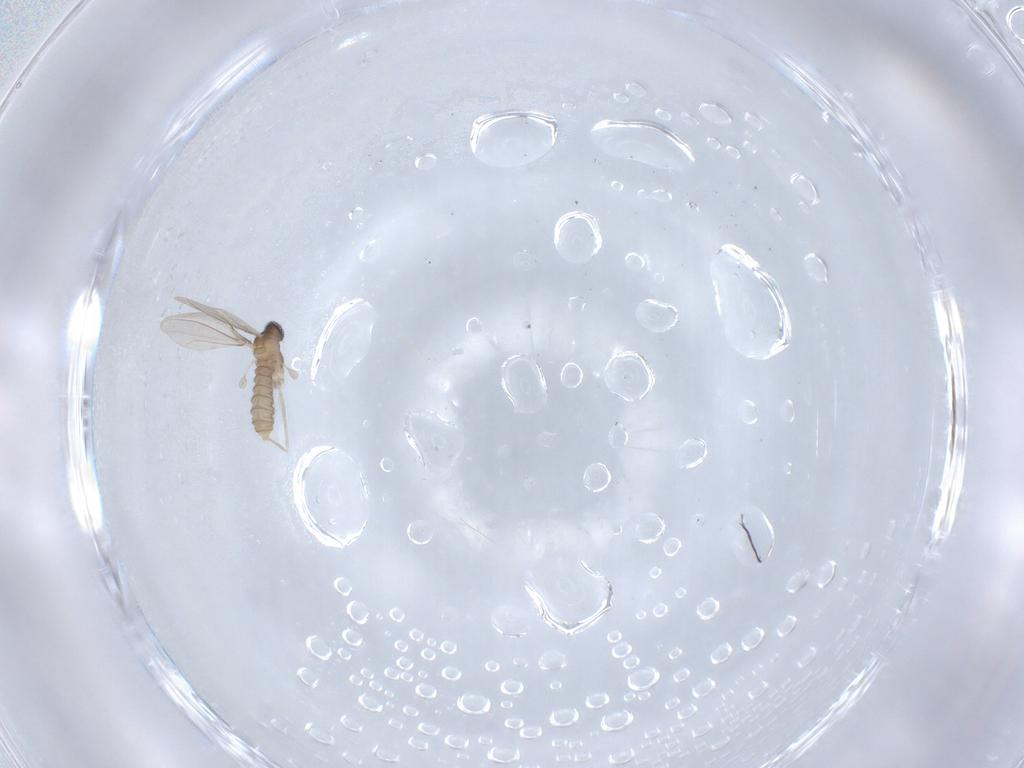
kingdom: Animalia
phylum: Arthropoda
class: Insecta
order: Diptera
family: Cecidomyiidae
